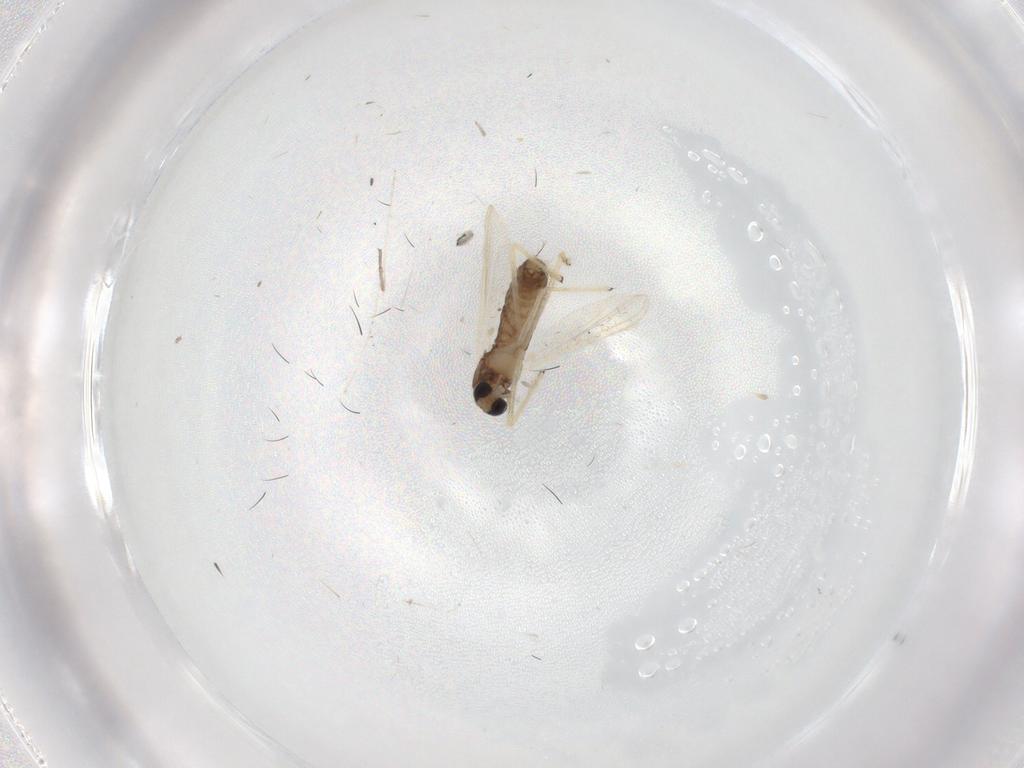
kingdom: Animalia
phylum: Arthropoda
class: Insecta
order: Diptera
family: Chironomidae
